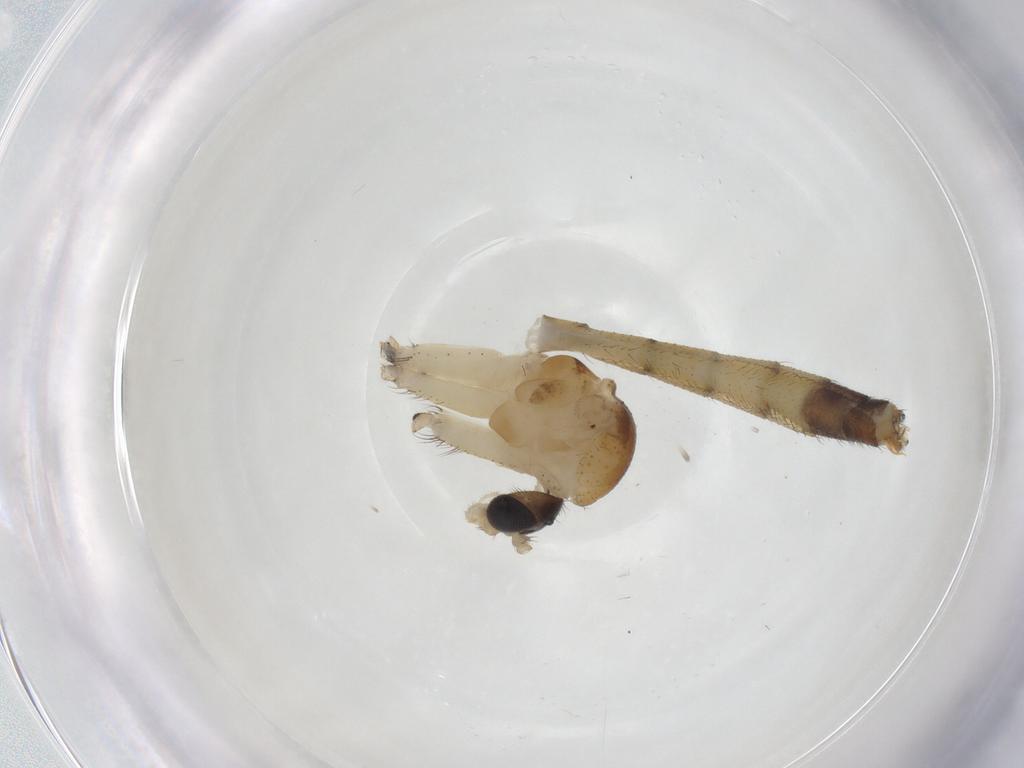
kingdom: Animalia
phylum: Arthropoda
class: Insecta
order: Diptera
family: Mycetophilidae
